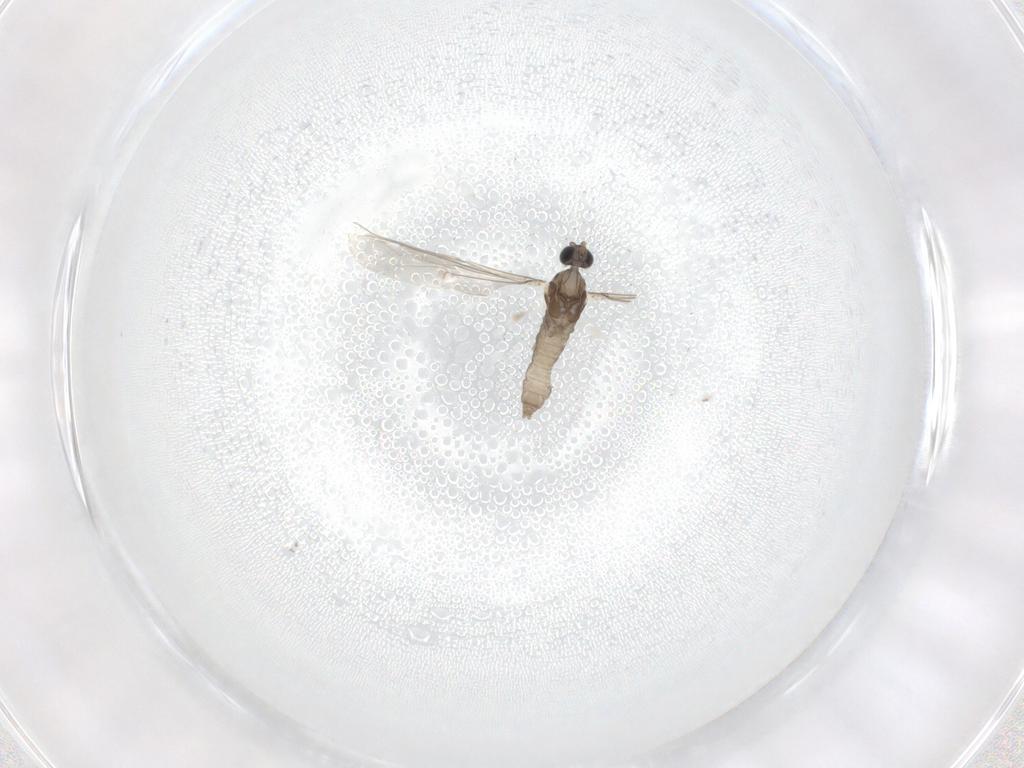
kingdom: Animalia
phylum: Arthropoda
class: Insecta
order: Diptera
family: Cecidomyiidae
